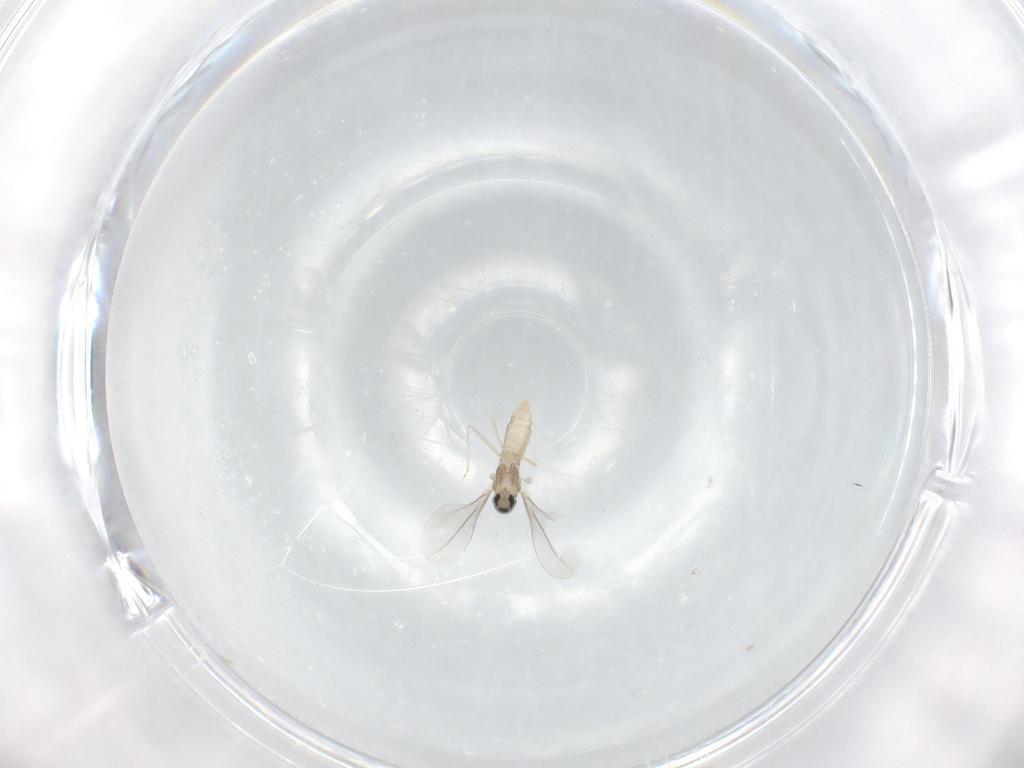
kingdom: Animalia
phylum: Arthropoda
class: Insecta
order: Diptera
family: Cecidomyiidae
